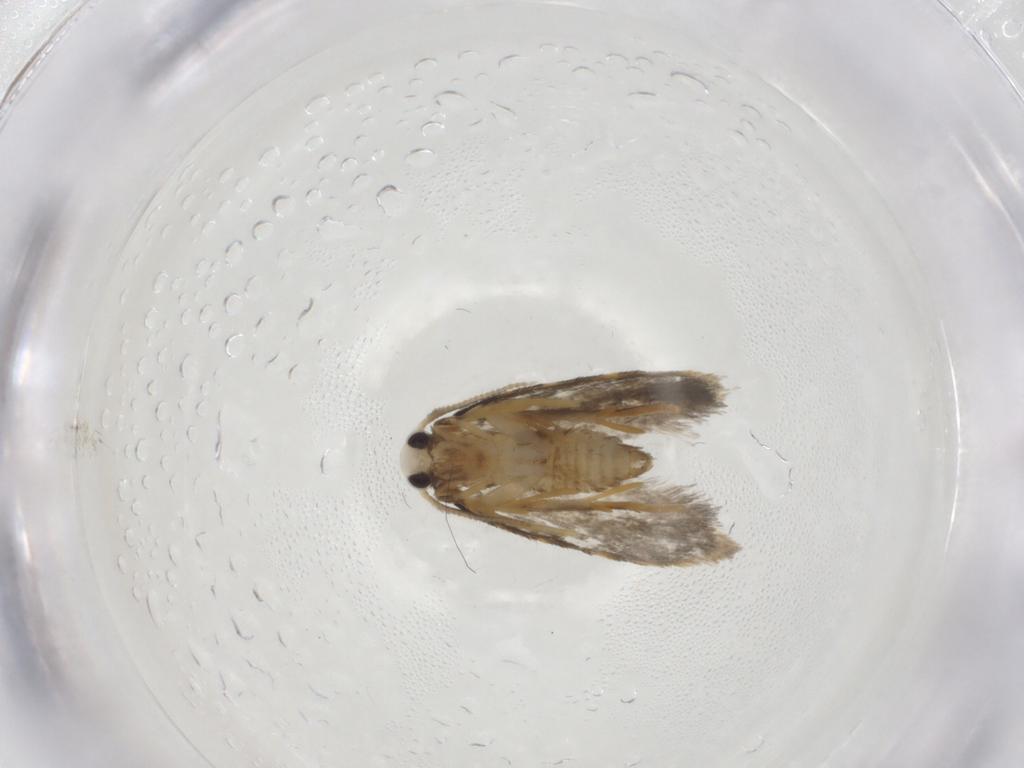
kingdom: Animalia
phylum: Arthropoda
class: Insecta
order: Lepidoptera
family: Psychidae
